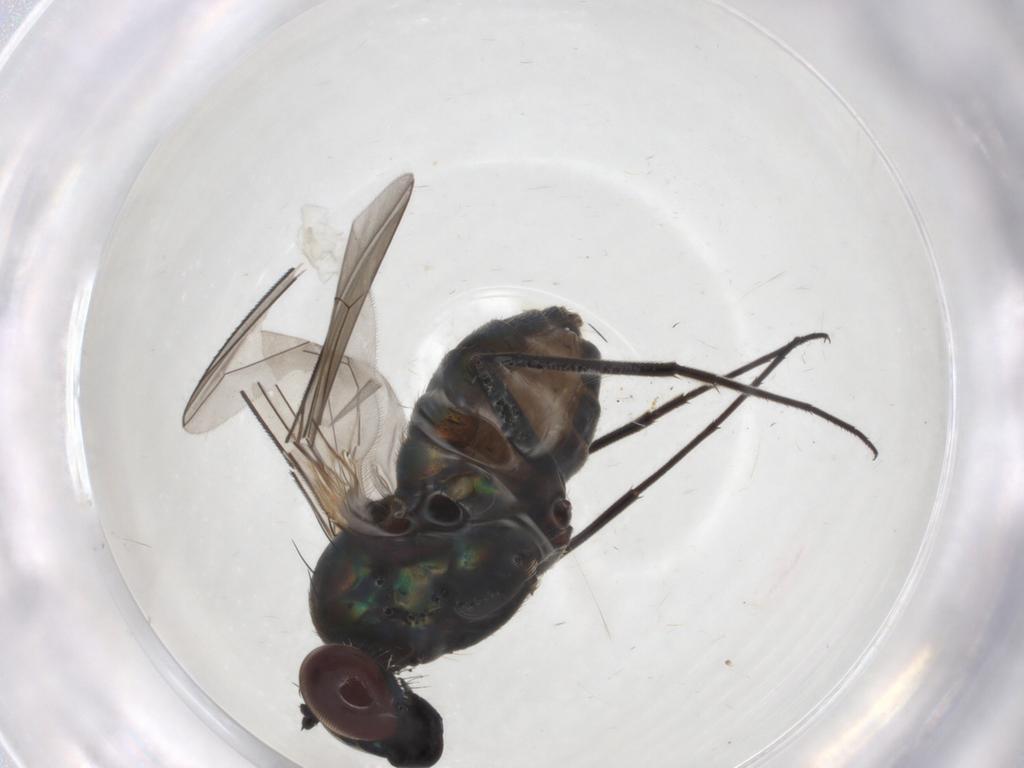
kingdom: Animalia
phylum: Arthropoda
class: Insecta
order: Diptera
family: Dolichopodidae
